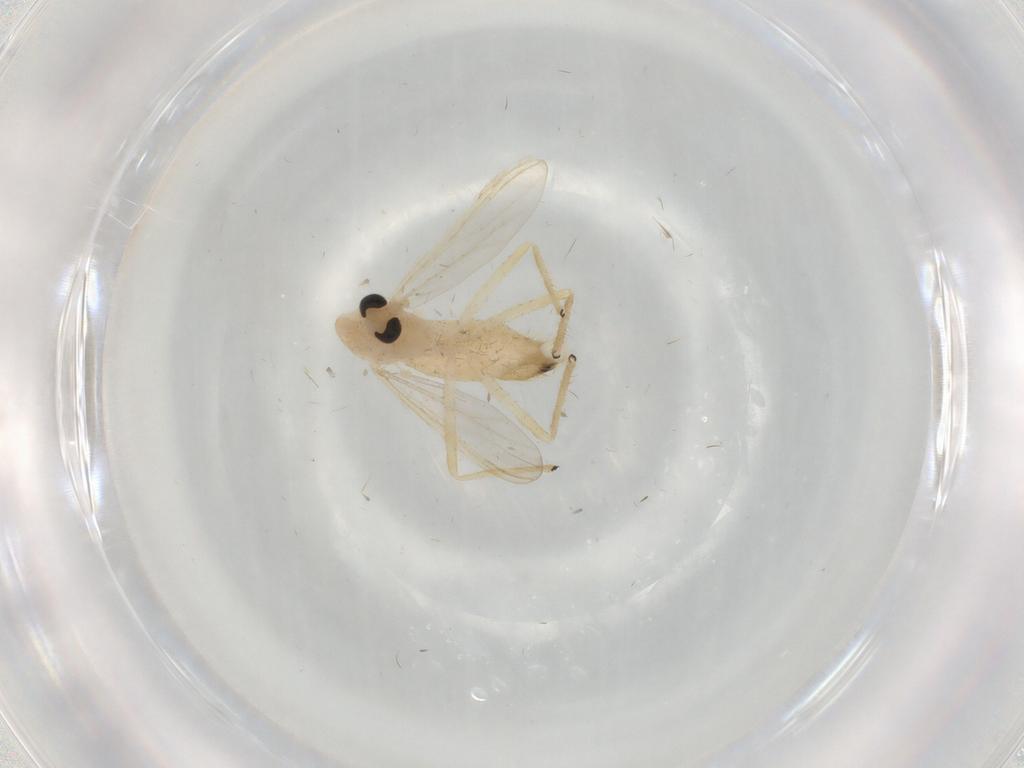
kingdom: Animalia
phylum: Arthropoda
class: Insecta
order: Diptera
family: Chironomidae
